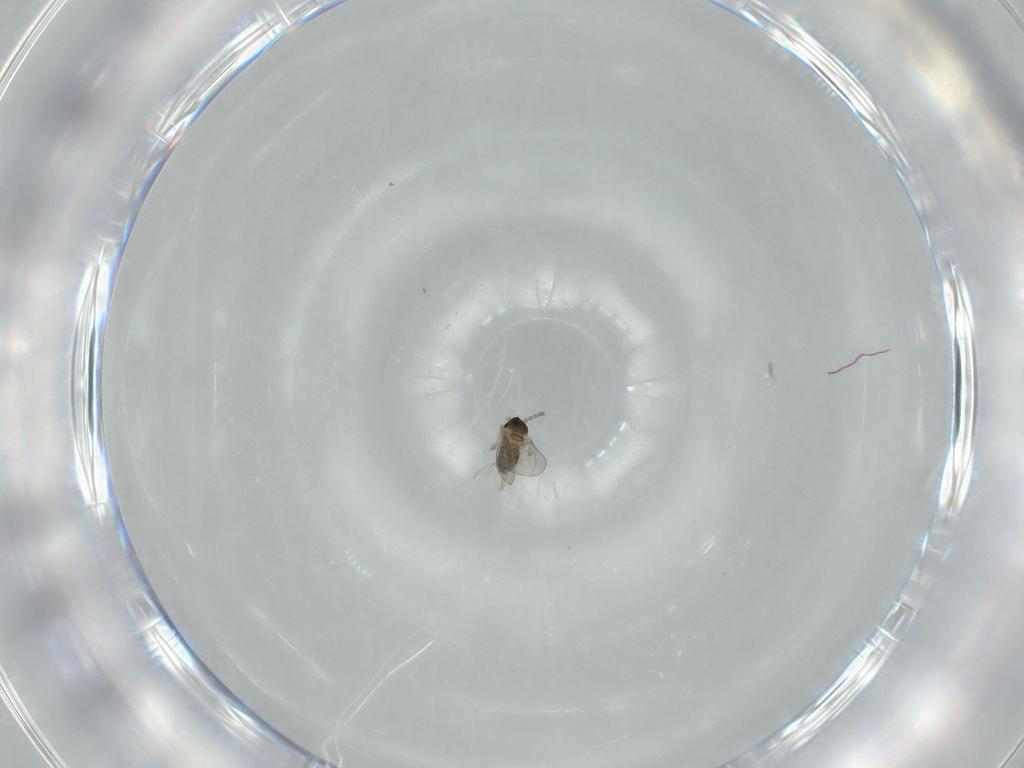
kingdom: Animalia
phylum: Arthropoda
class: Insecta
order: Diptera
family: Cecidomyiidae
